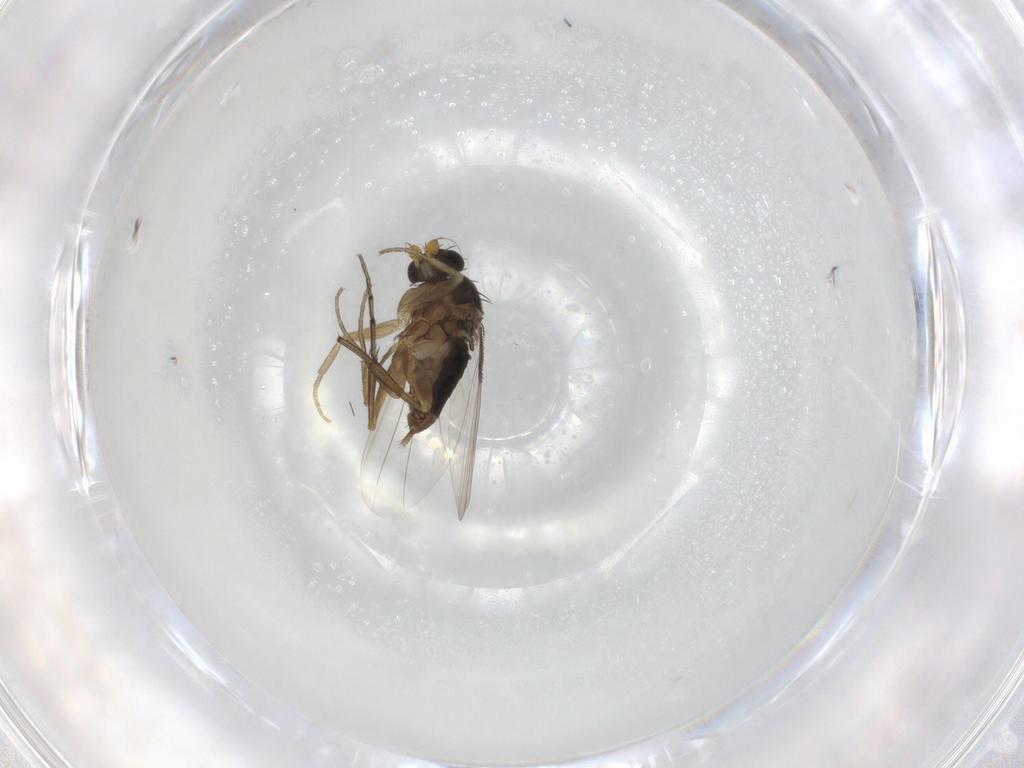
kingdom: Animalia
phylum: Arthropoda
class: Insecta
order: Diptera
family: Phoridae
